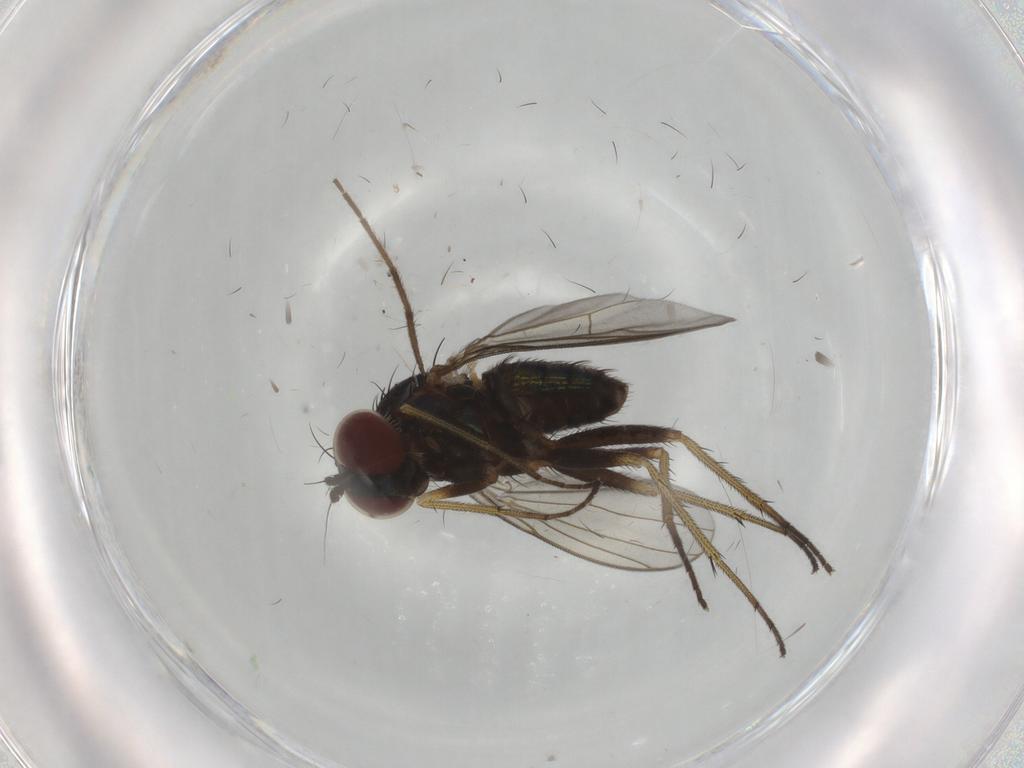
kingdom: Animalia
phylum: Arthropoda
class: Insecta
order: Diptera
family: Dolichopodidae
